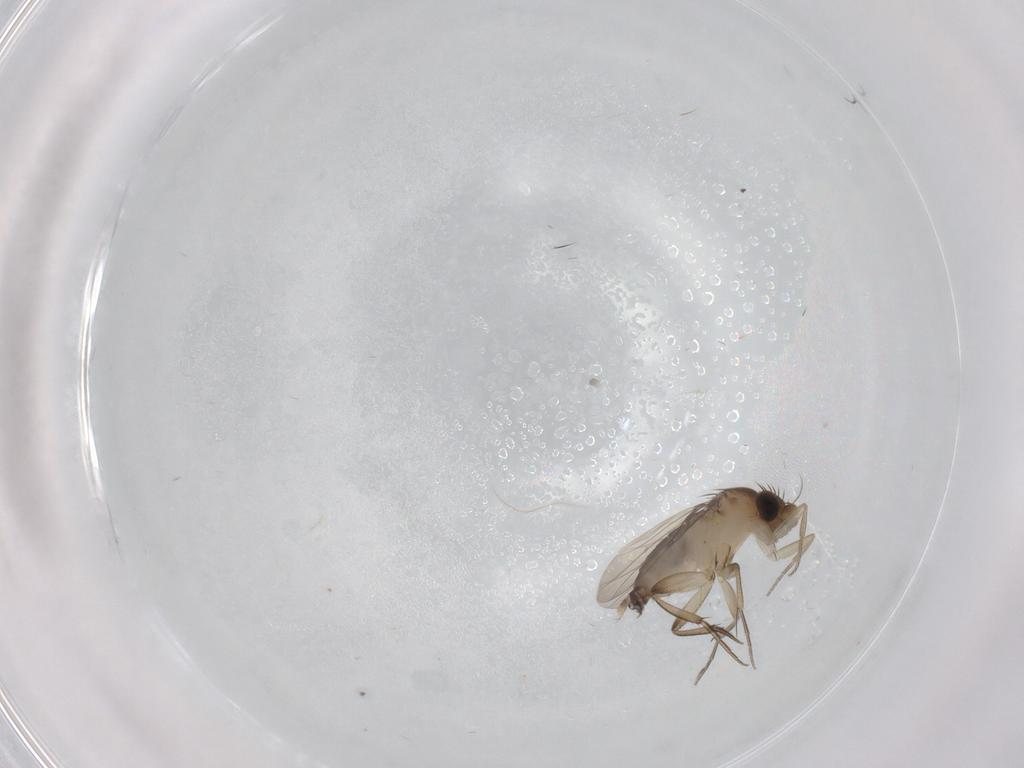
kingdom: Animalia
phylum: Arthropoda
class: Insecta
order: Diptera
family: Phoridae
